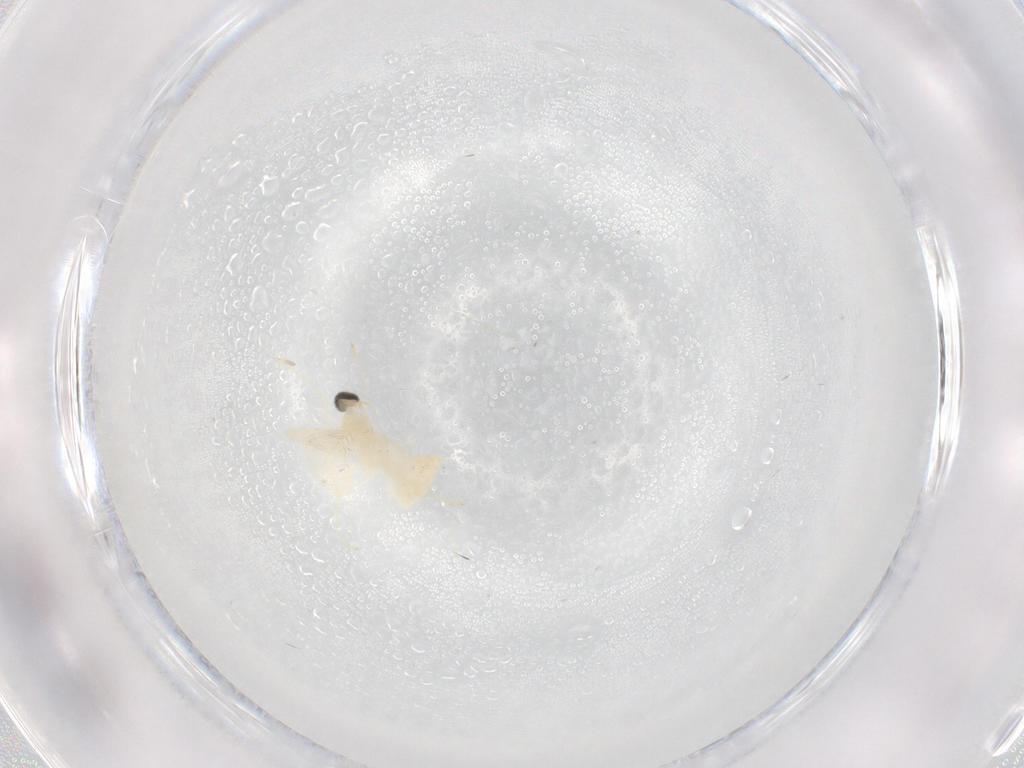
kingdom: Animalia
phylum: Arthropoda
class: Insecta
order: Diptera
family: Cecidomyiidae
